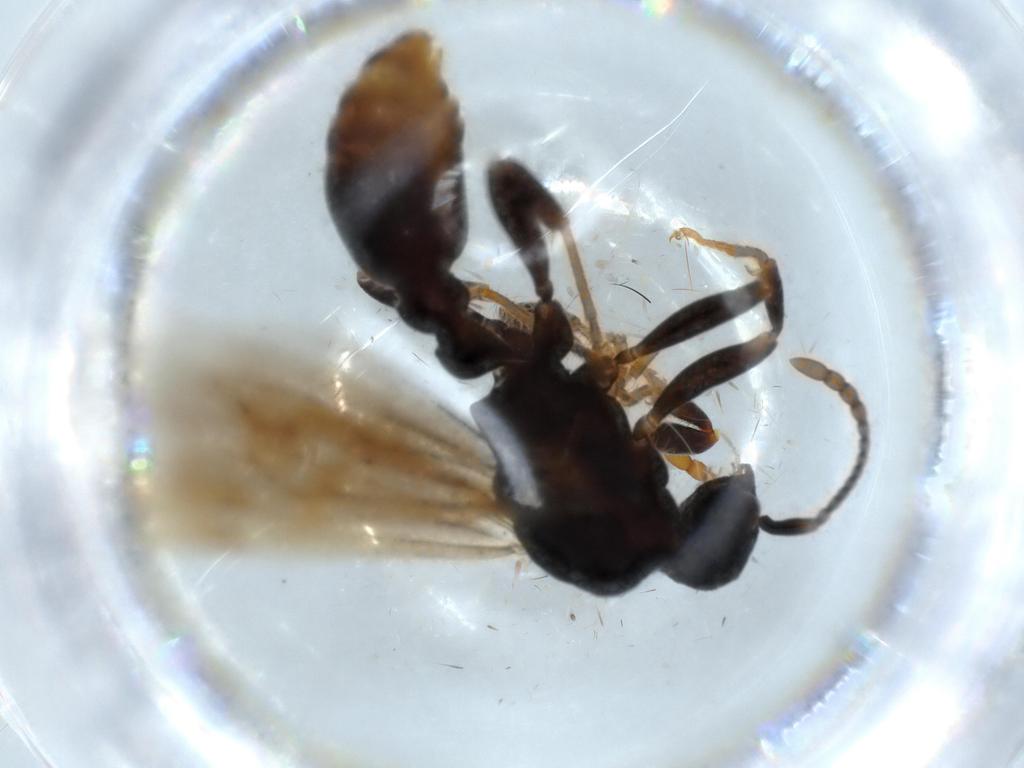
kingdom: Animalia
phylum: Arthropoda
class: Insecta
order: Hymenoptera
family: Formicidae
